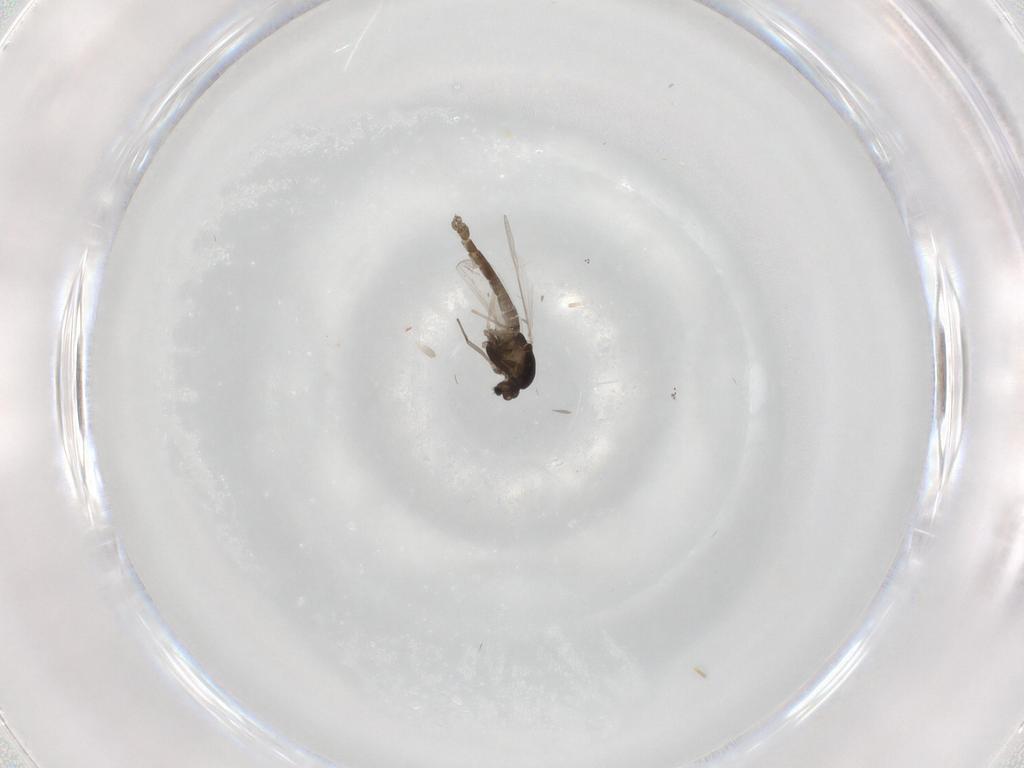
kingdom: Animalia
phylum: Arthropoda
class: Insecta
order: Diptera
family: Chironomidae
